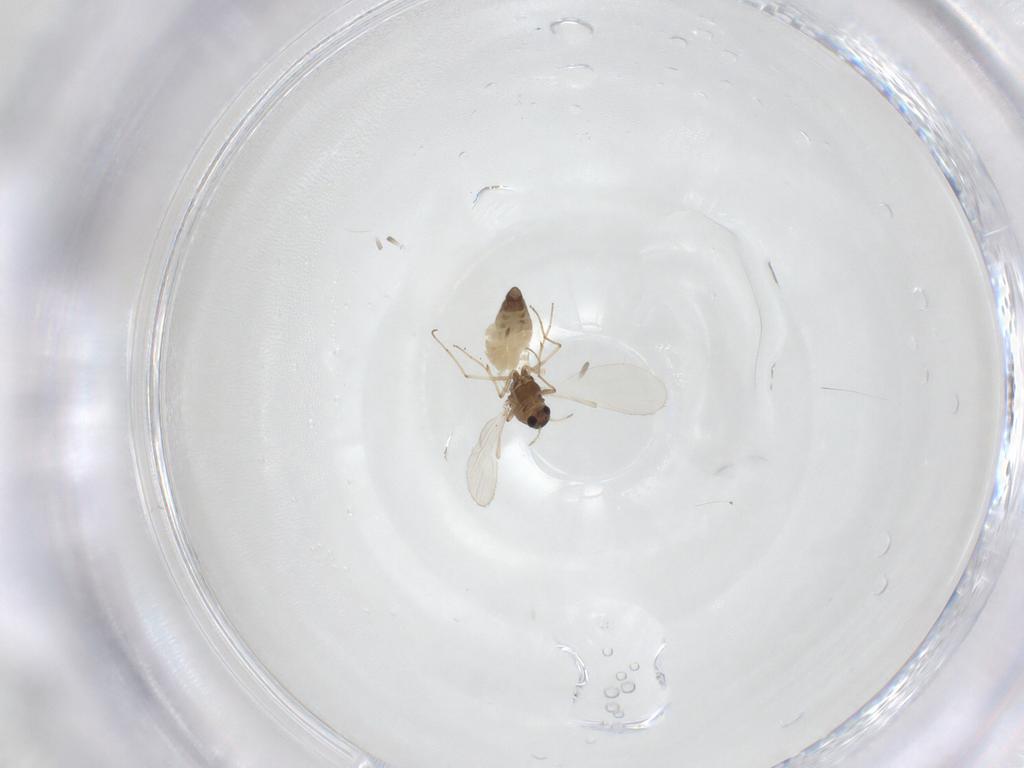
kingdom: Animalia
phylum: Arthropoda
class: Insecta
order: Diptera
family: Chironomidae
